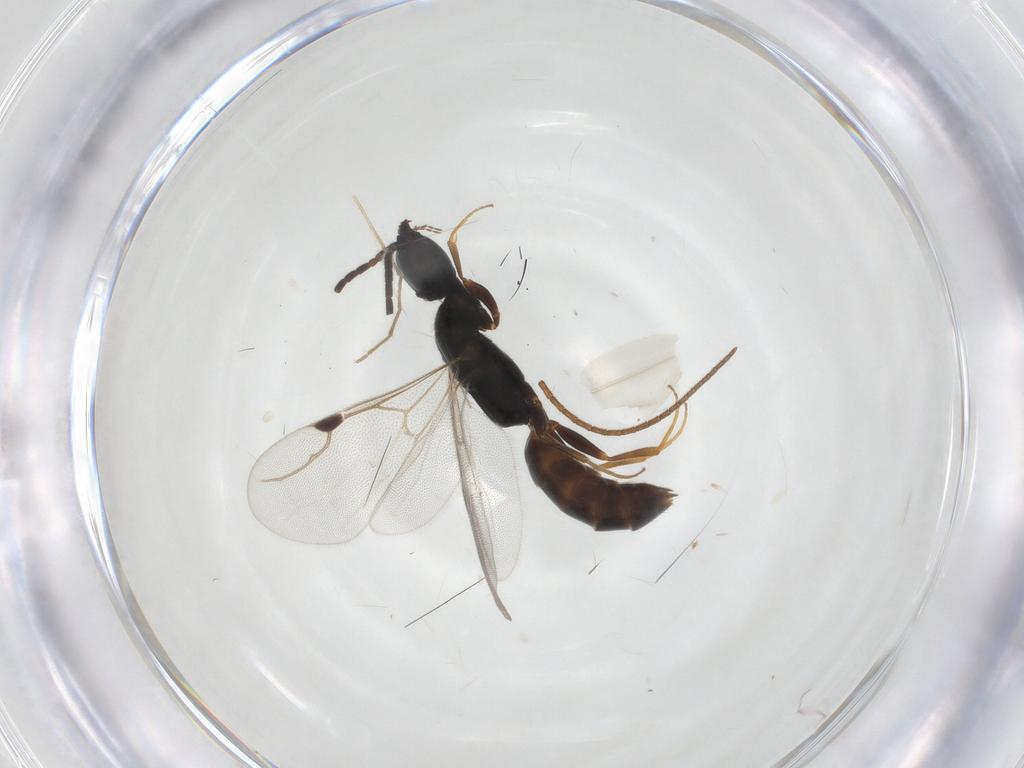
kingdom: Animalia
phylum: Arthropoda
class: Insecta
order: Hymenoptera
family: Ichneumonidae
